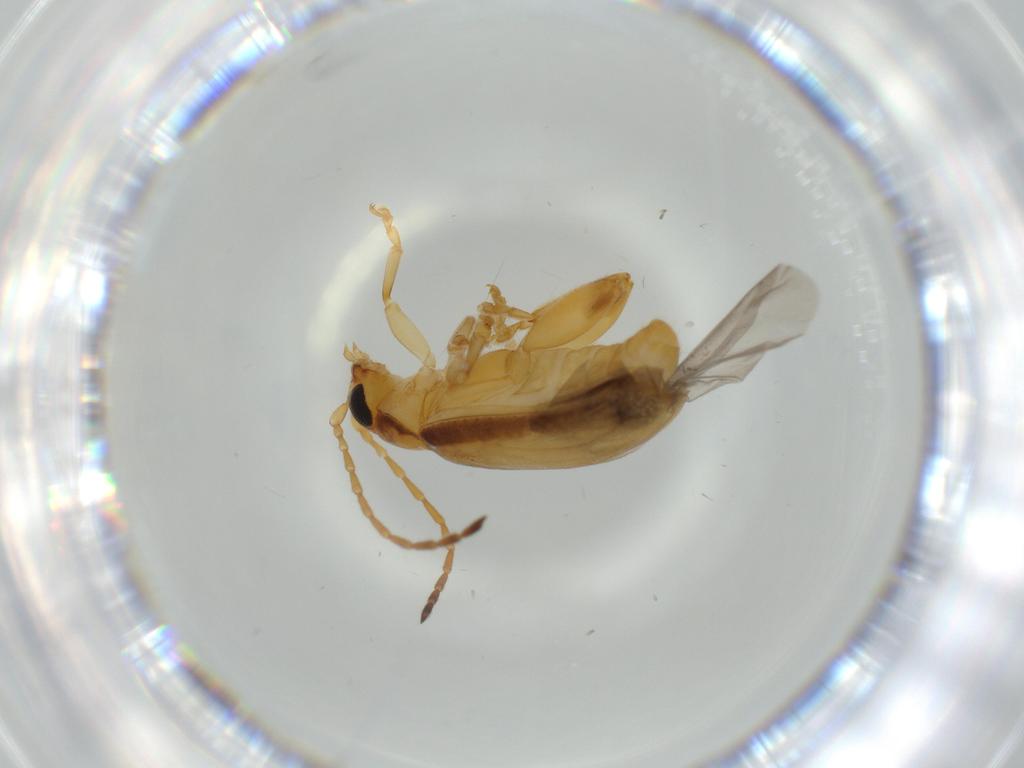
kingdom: Animalia
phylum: Arthropoda
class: Insecta
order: Coleoptera
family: Chrysomelidae
